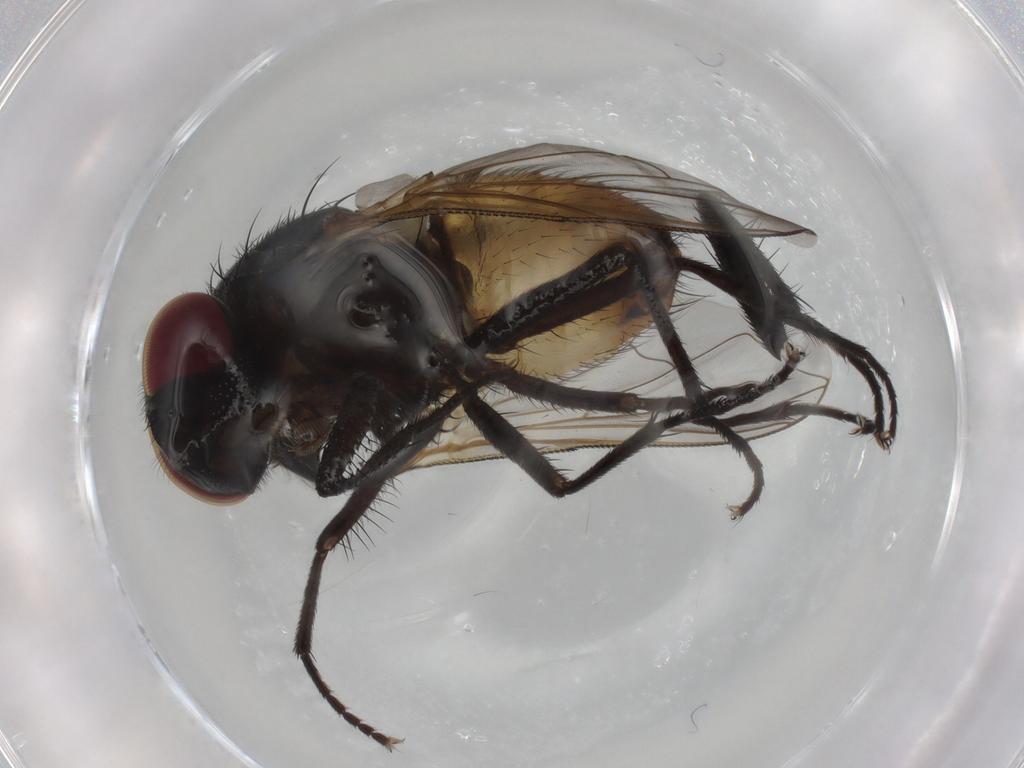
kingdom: Animalia
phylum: Arthropoda
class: Insecta
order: Diptera
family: Muscidae
